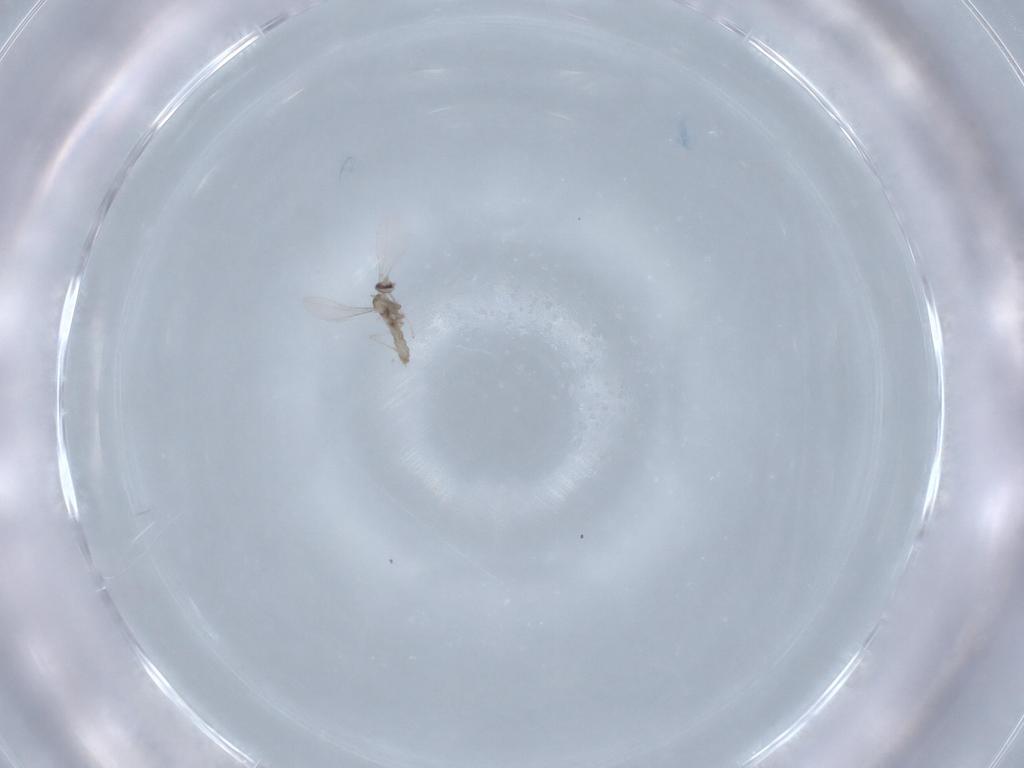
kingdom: Animalia
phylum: Arthropoda
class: Insecta
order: Diptera
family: Cecidomyiidae
